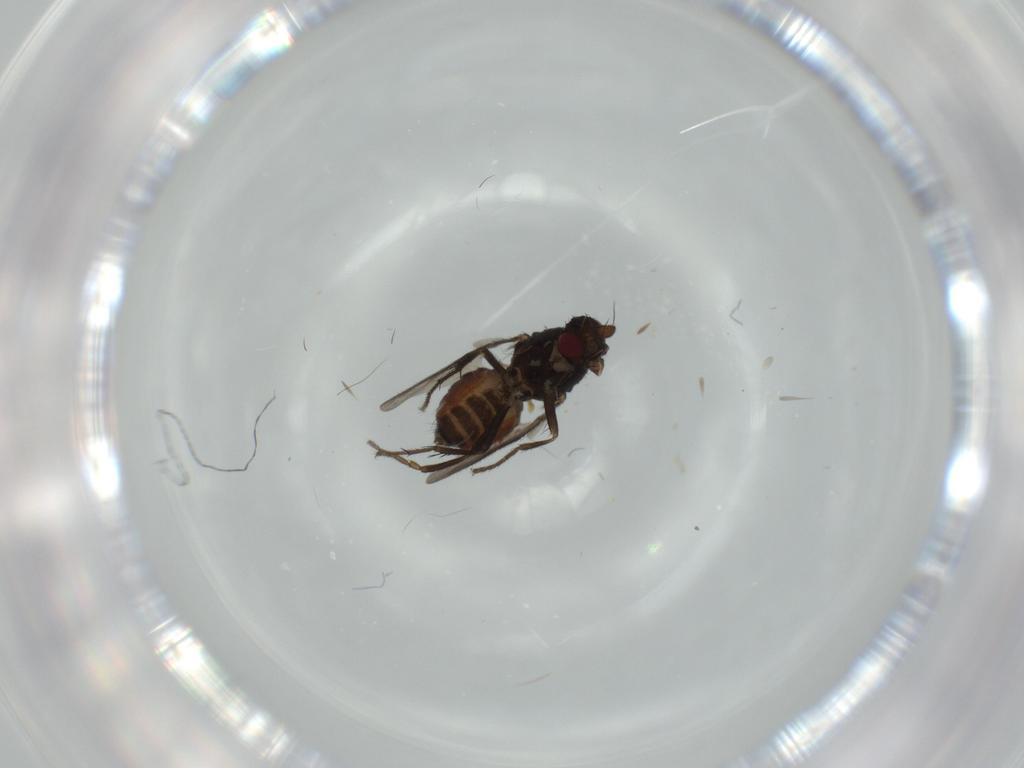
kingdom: Animalia
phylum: Arthropoda
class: Insecta
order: Diptera
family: Sphaeroceridae
